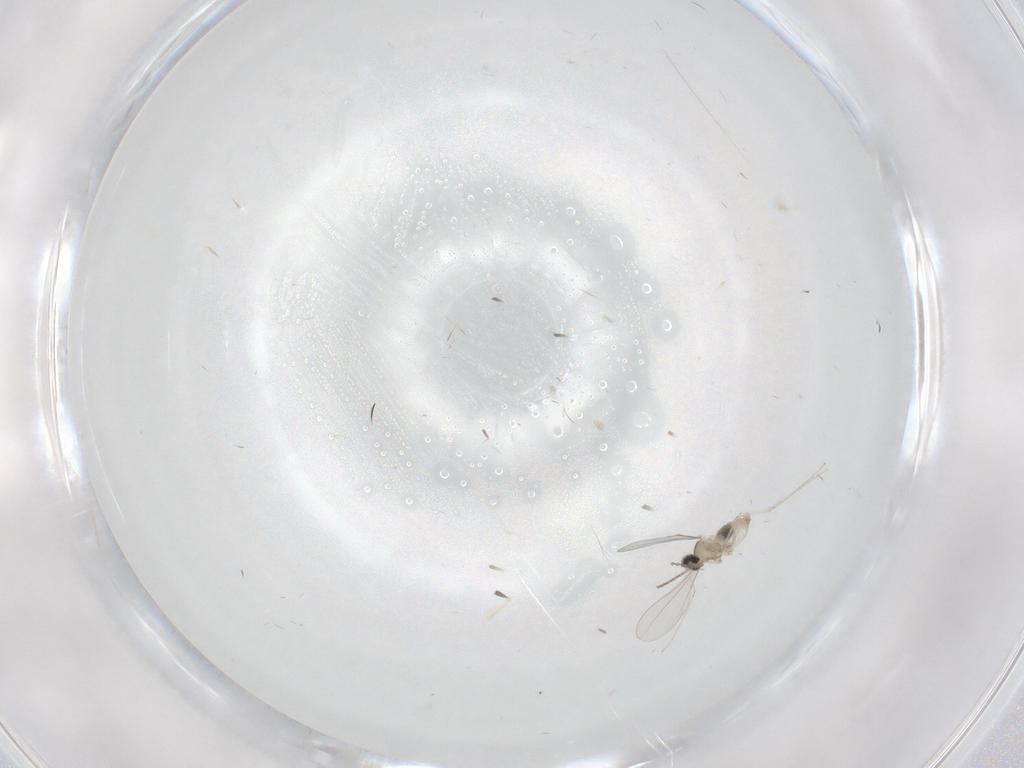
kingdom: Animalia
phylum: Arthropoda
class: Insecta
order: Diptera
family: Cecidomyiidae
